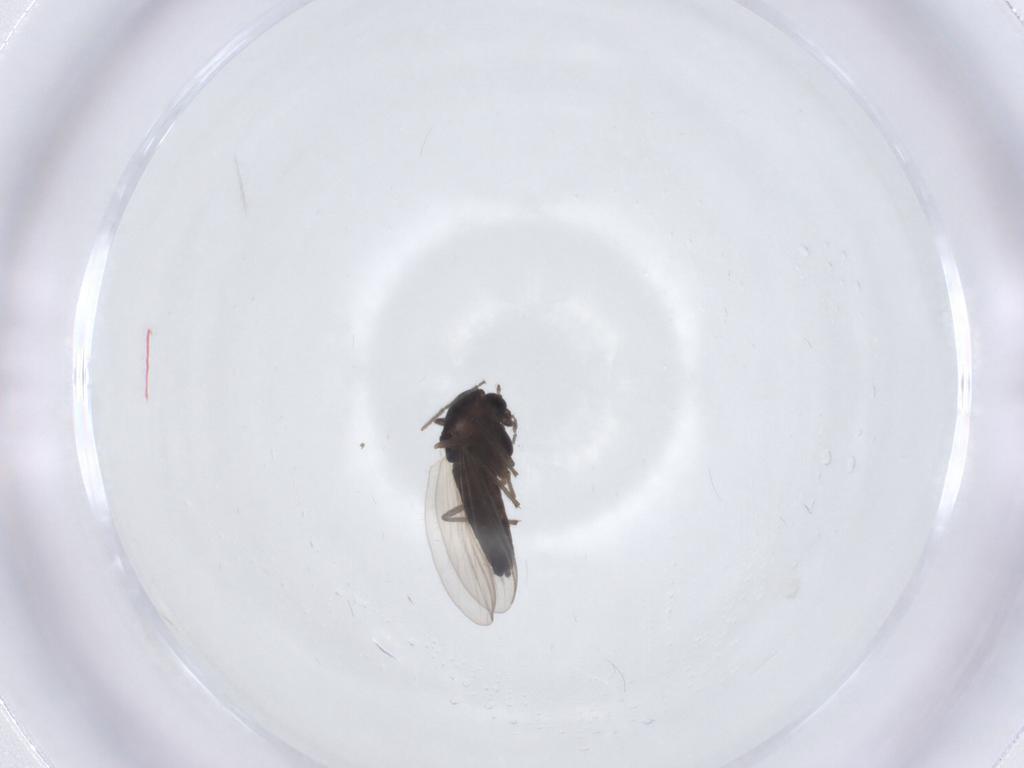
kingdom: Animalia
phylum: Arthropoda
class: Insecta
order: Diptera
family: Chironomidae
